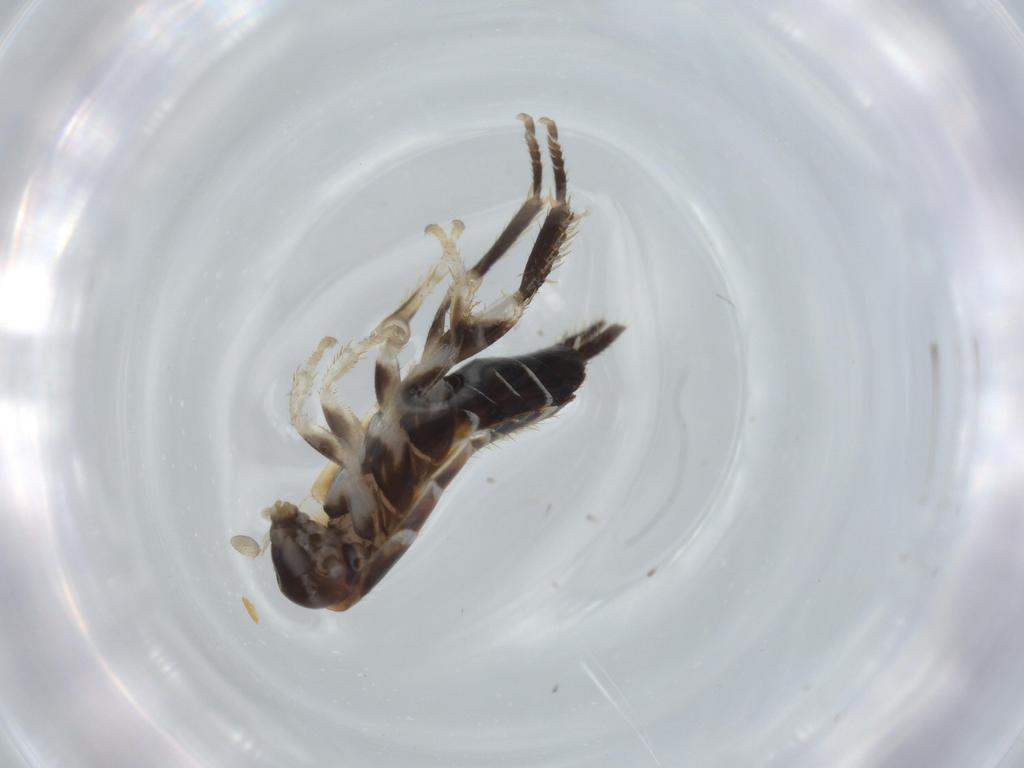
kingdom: Animalia
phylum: Arthropoda
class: Insecta
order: Blattodea
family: Ectobiidae
